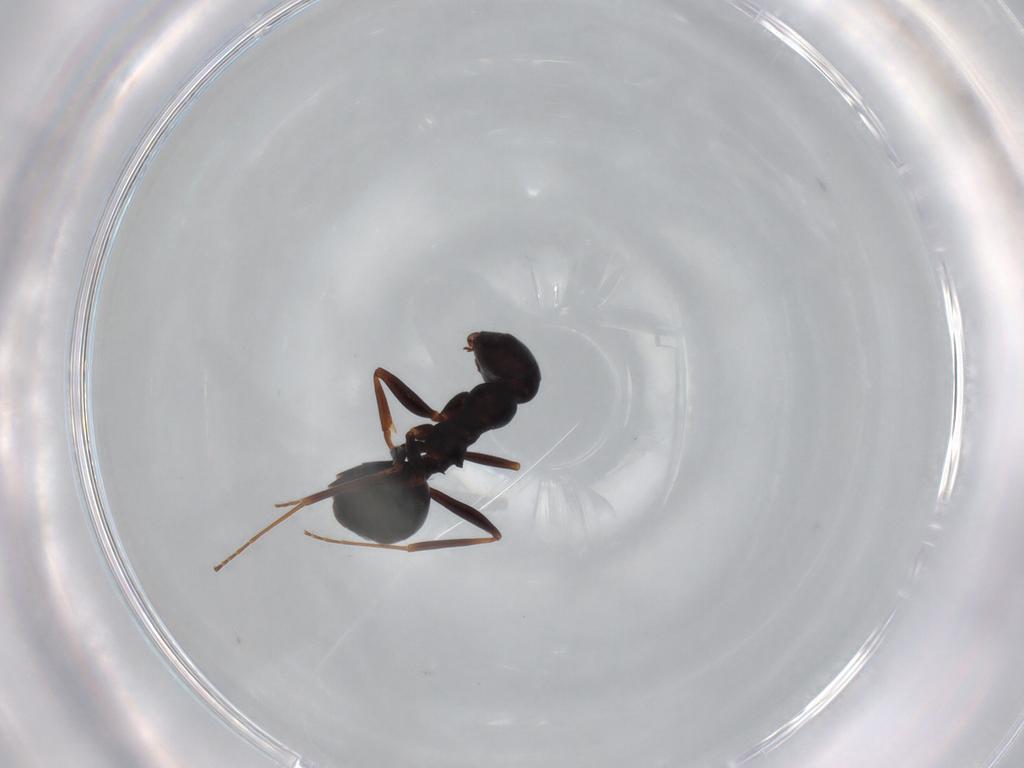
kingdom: Animalia
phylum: Arthropoda
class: Insecta
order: Hymenoptera
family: Formicidae
